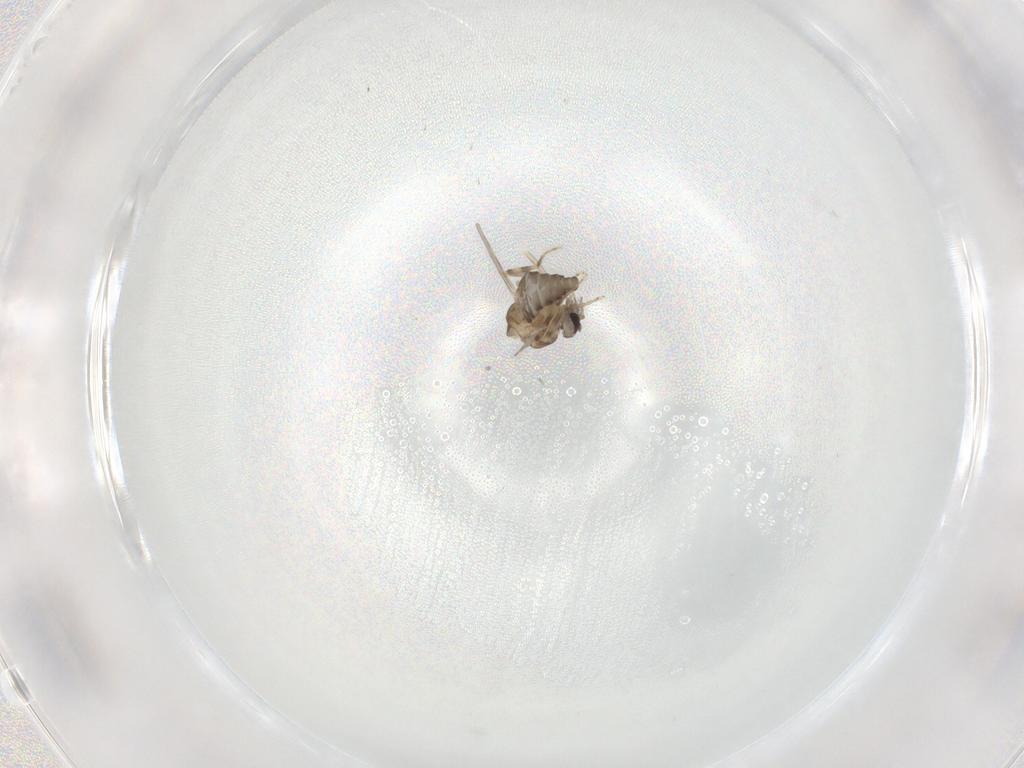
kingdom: Animalia
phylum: Arthropoda
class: Insecta
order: Diptera
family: Ceratopogonidae
